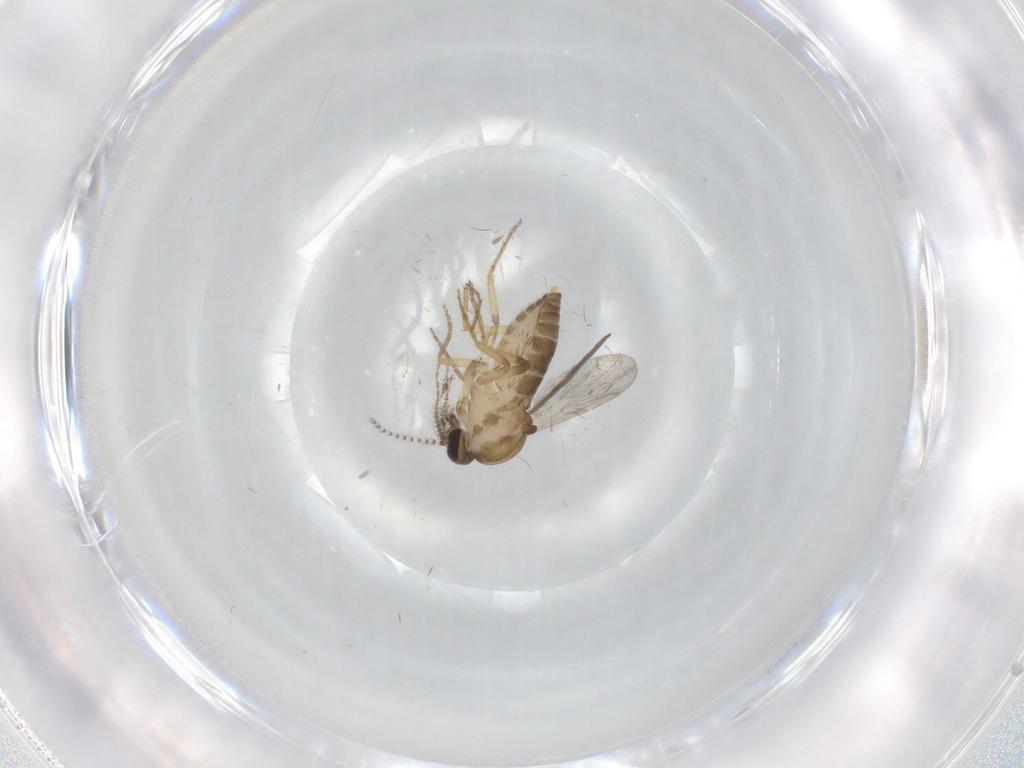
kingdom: Animalia
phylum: Arthropoda
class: Insecta
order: Diptera
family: Ceratopogonidae
